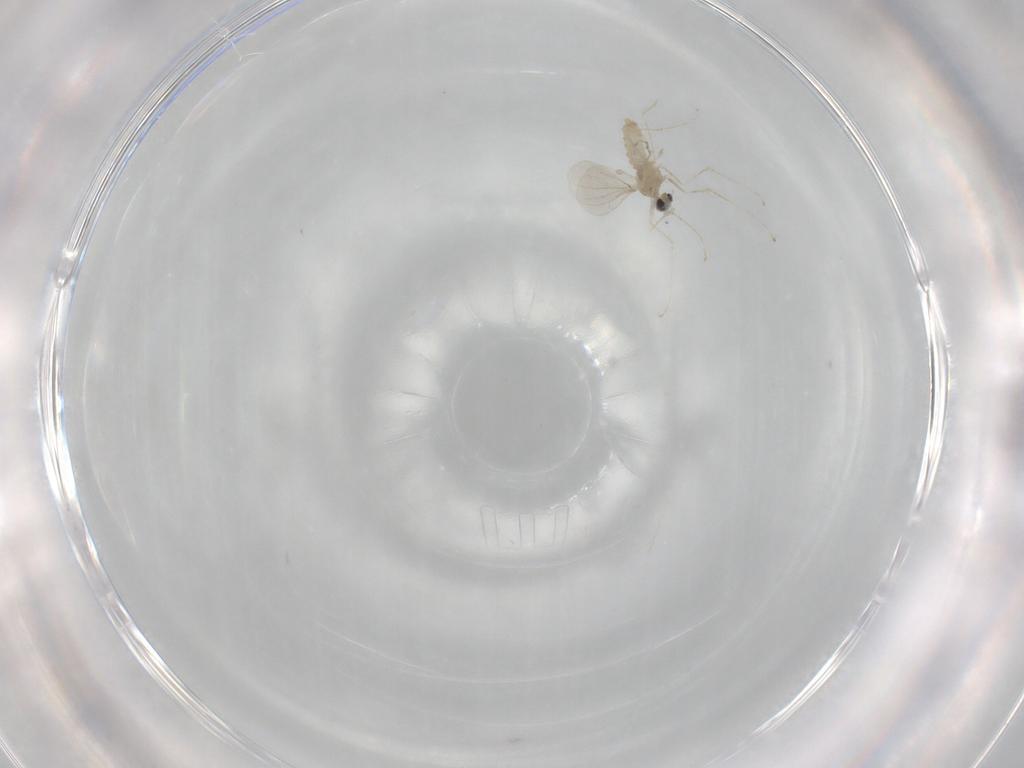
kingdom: Animalia
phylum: Arthropoda
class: Insecta
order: Diptera
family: Cecidomyiidae
